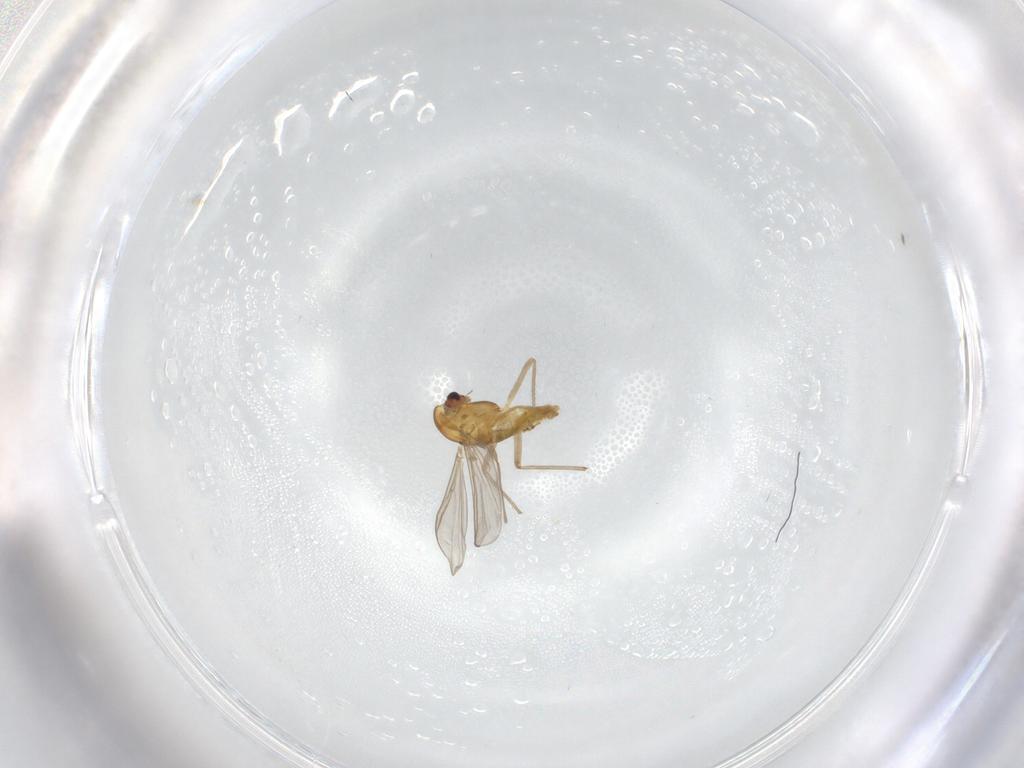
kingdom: Animalia
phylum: Arthropoda
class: Insecta
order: Diptera
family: Chironomidae
